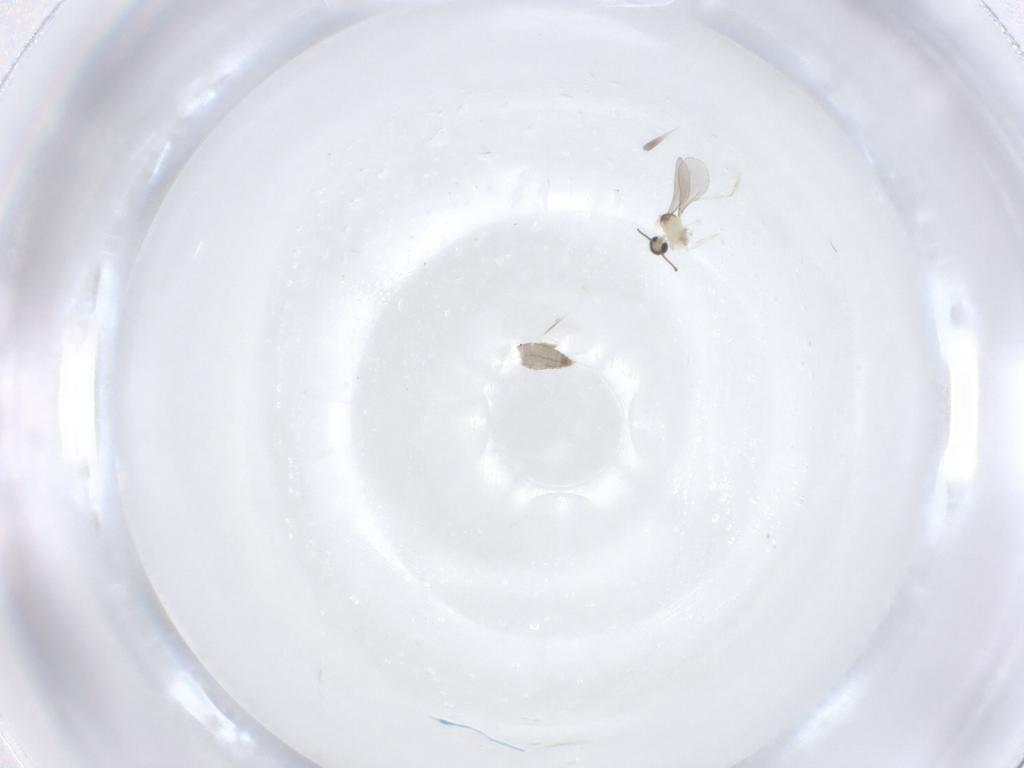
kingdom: Animalia
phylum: Arthropoda
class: Insecta
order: Diptera
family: Cecidomyiidae
